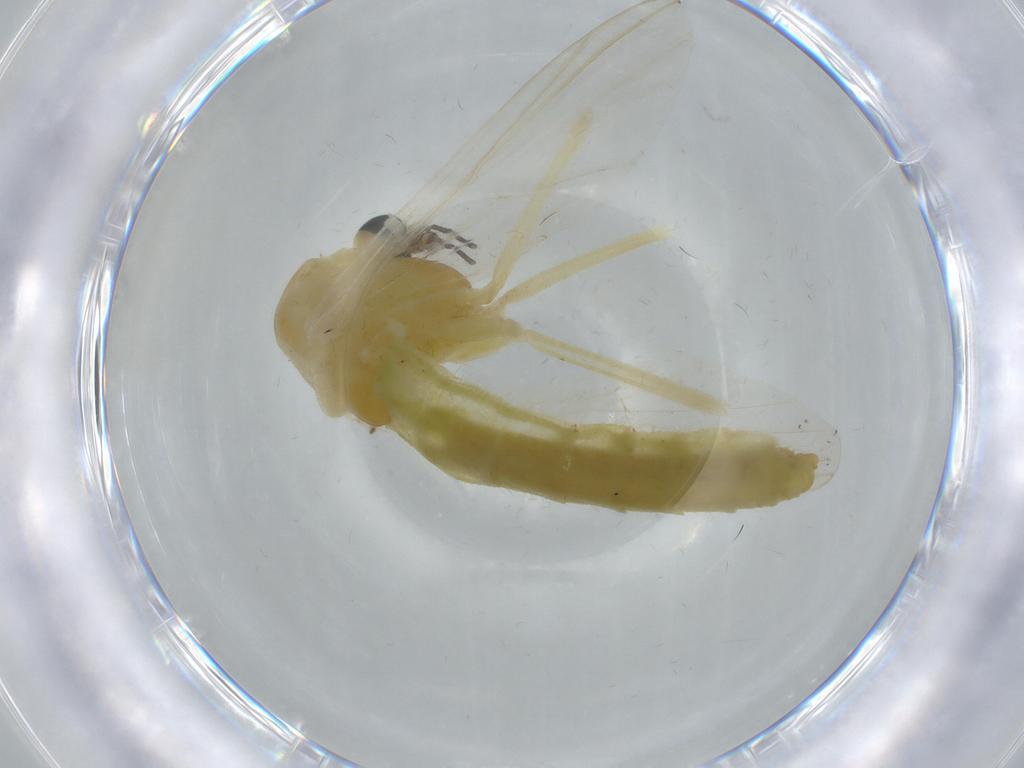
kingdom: Animalia
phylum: Arthropoda
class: Insecta
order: Diptera
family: Chironomidae
